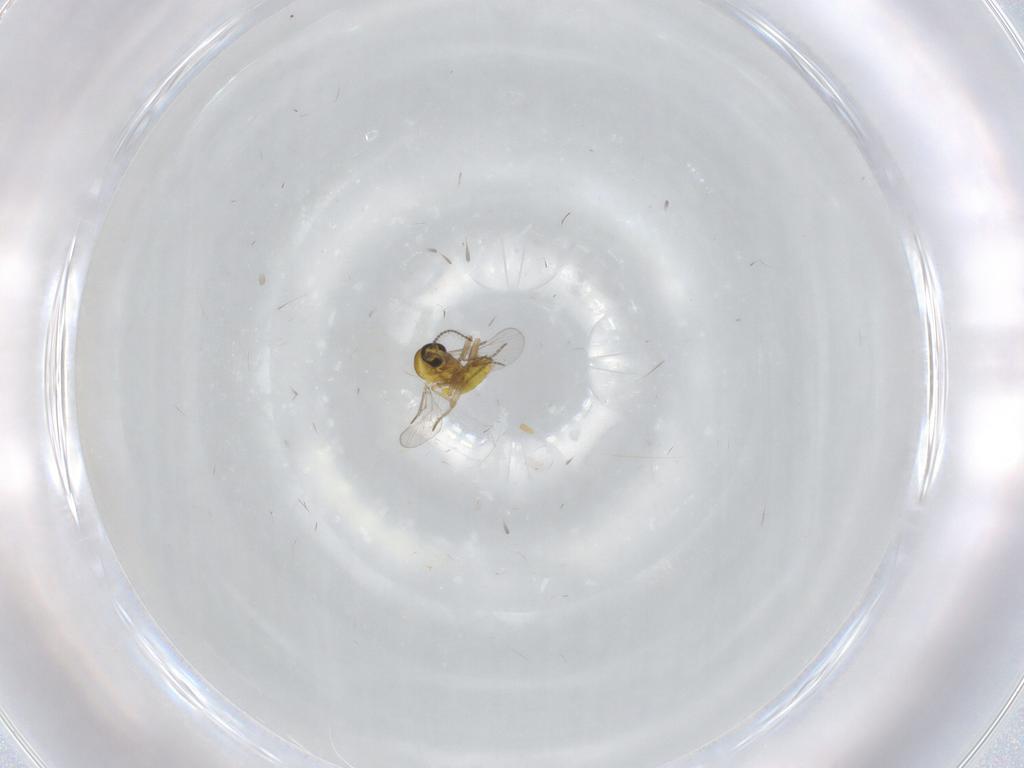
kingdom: Animalia
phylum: Arthropoda
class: Insecta
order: Diptera
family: Ceratopogonidae
